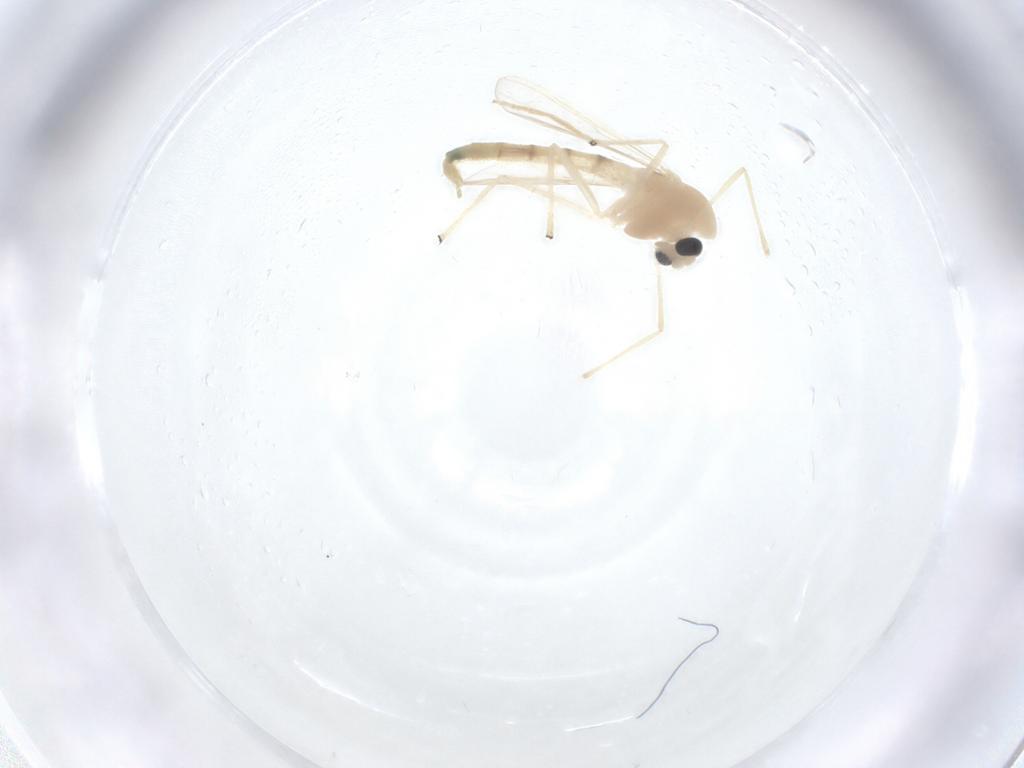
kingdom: Animalia
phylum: Arthropoda
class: Insecta
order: Diptera
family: Chironomidae
